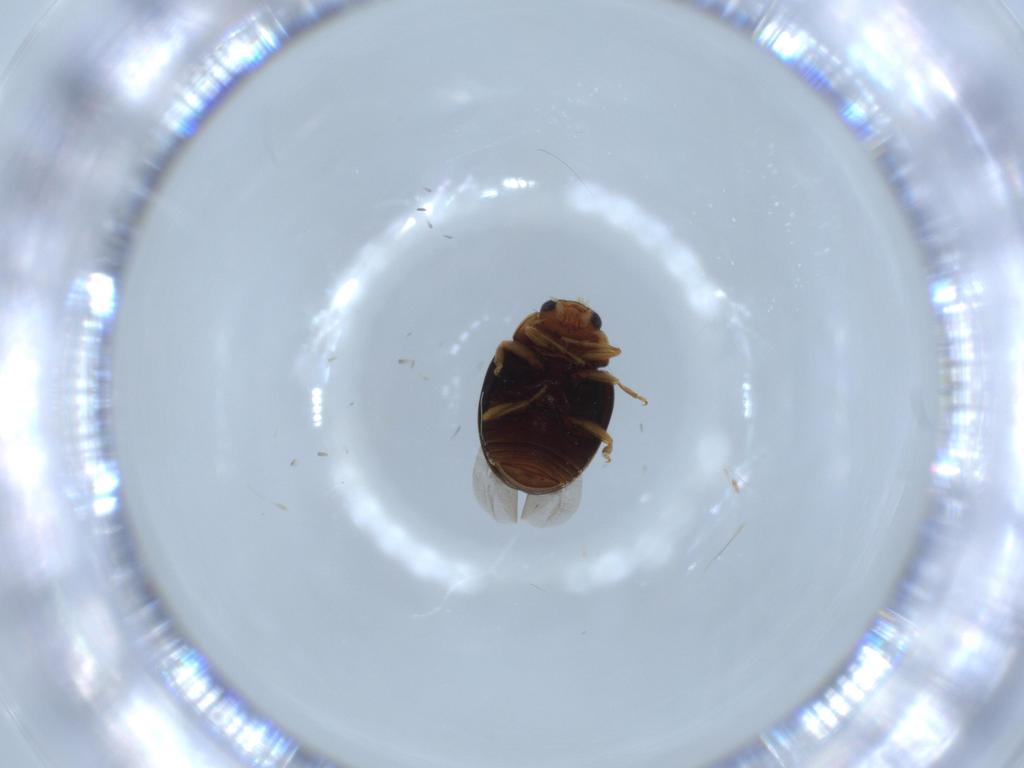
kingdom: Animalia
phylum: Arthropoda
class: Insecta
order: Coleoptera
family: Coccinellidae
